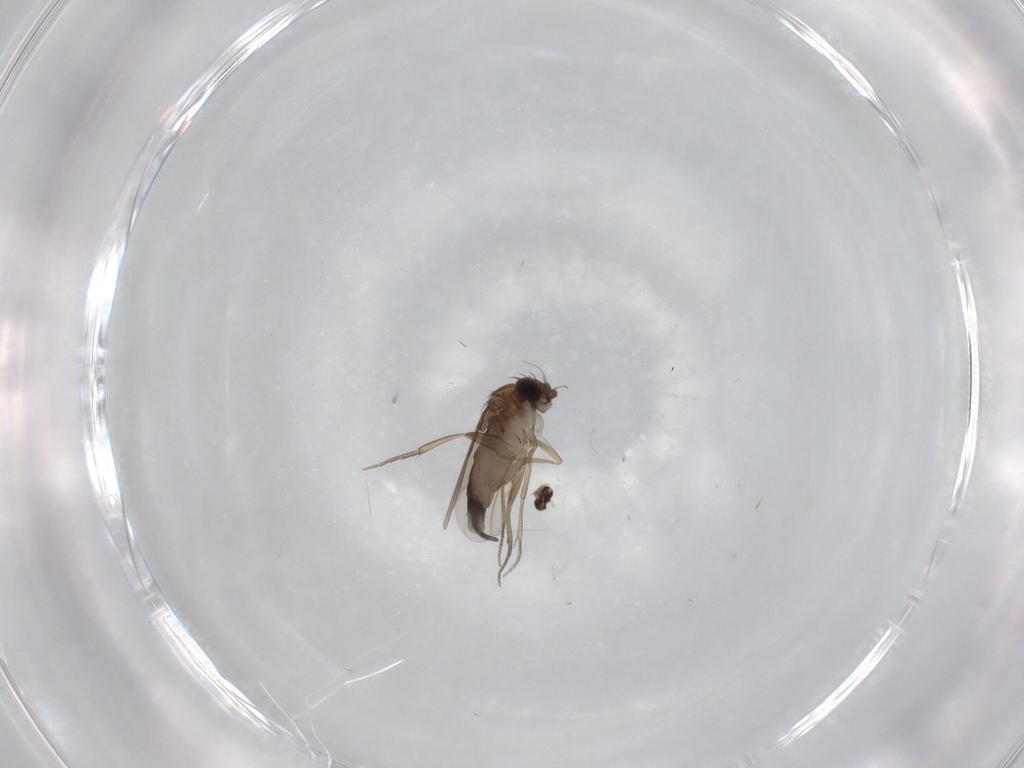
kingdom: Animalia
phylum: Arthropoda
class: Insecta
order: Diptera
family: Phoridae
